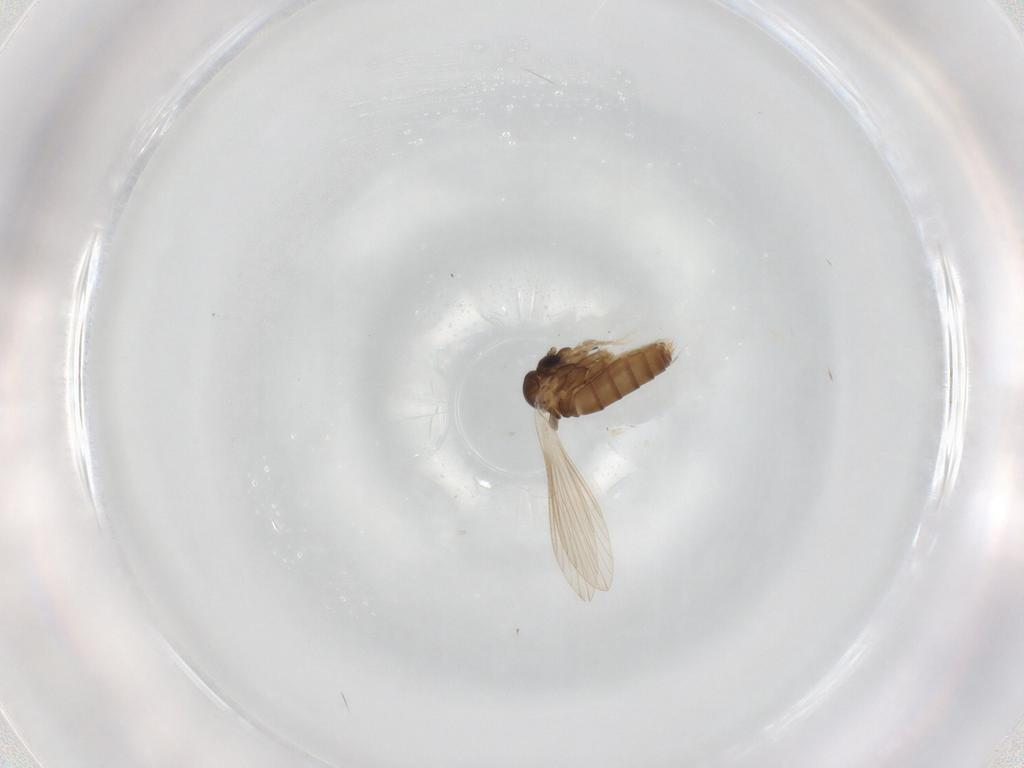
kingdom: Animalia
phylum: Arthropoda
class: Insecta
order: Diptera
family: Psychodidae
